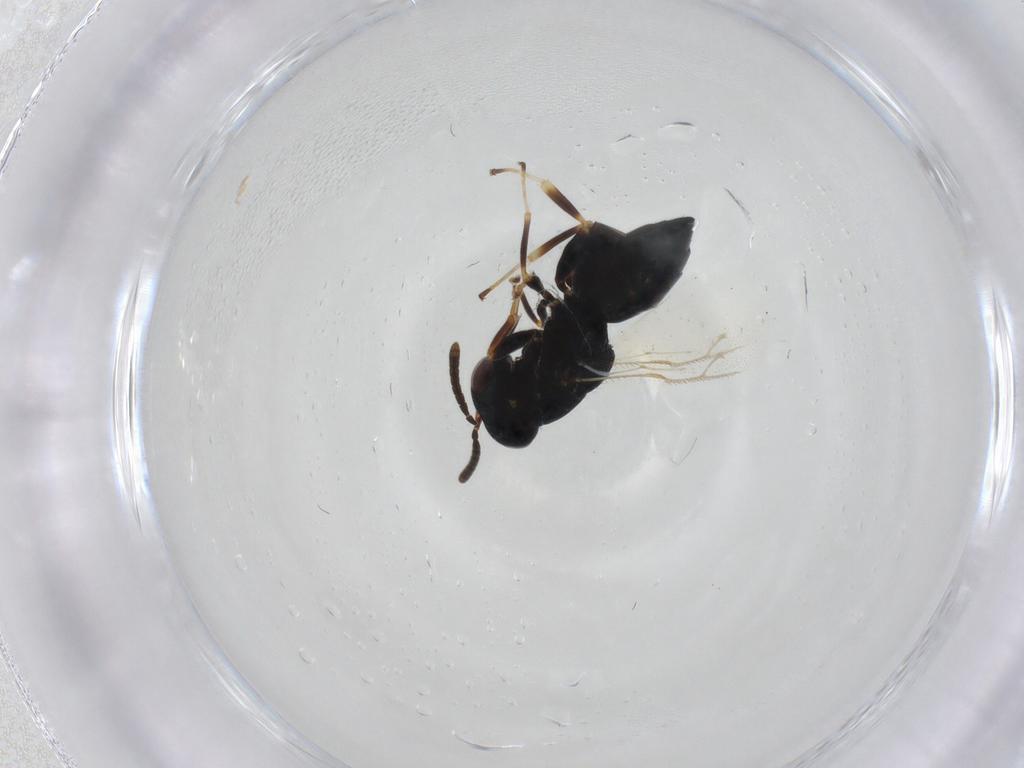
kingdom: Animalia
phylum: Arthropoda
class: Insecta
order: Hymenoptera
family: Pteromalidae
